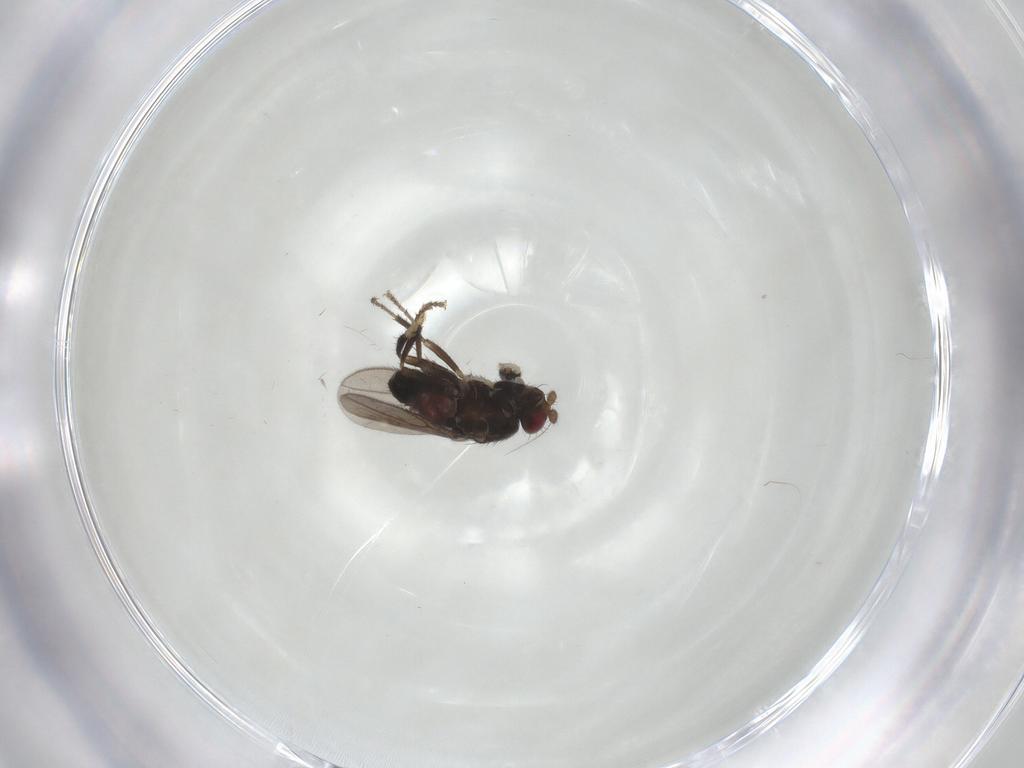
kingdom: Animalia
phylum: Arthropoda
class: Insecta
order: Diptera
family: Sphaeroceridae
